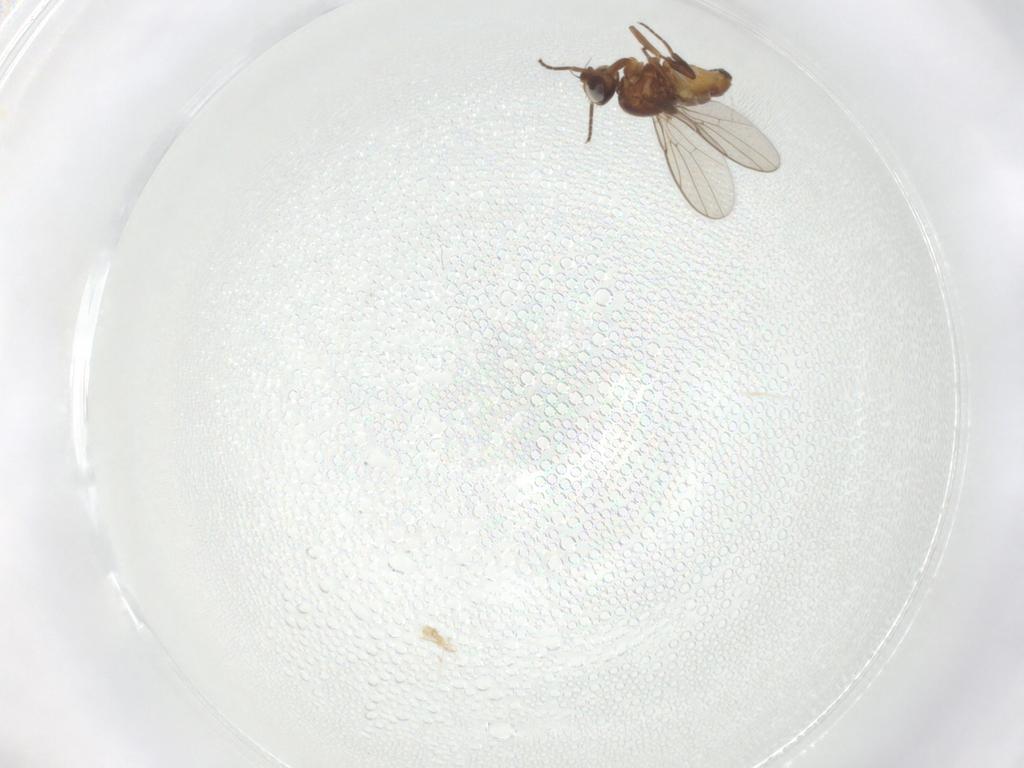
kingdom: Animalia
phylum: Arthropoda
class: Insecta
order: Diptera
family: Chloropidae
